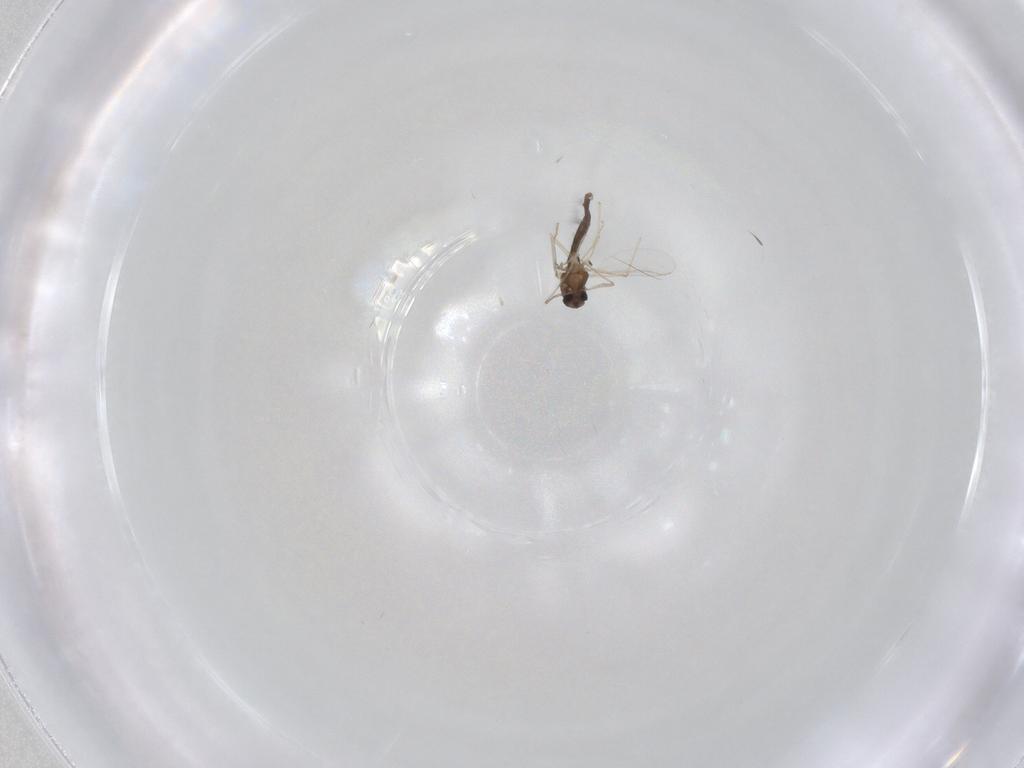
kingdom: Animalia
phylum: Arthropoda
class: Insecta
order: Diptera
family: Chironomidae
